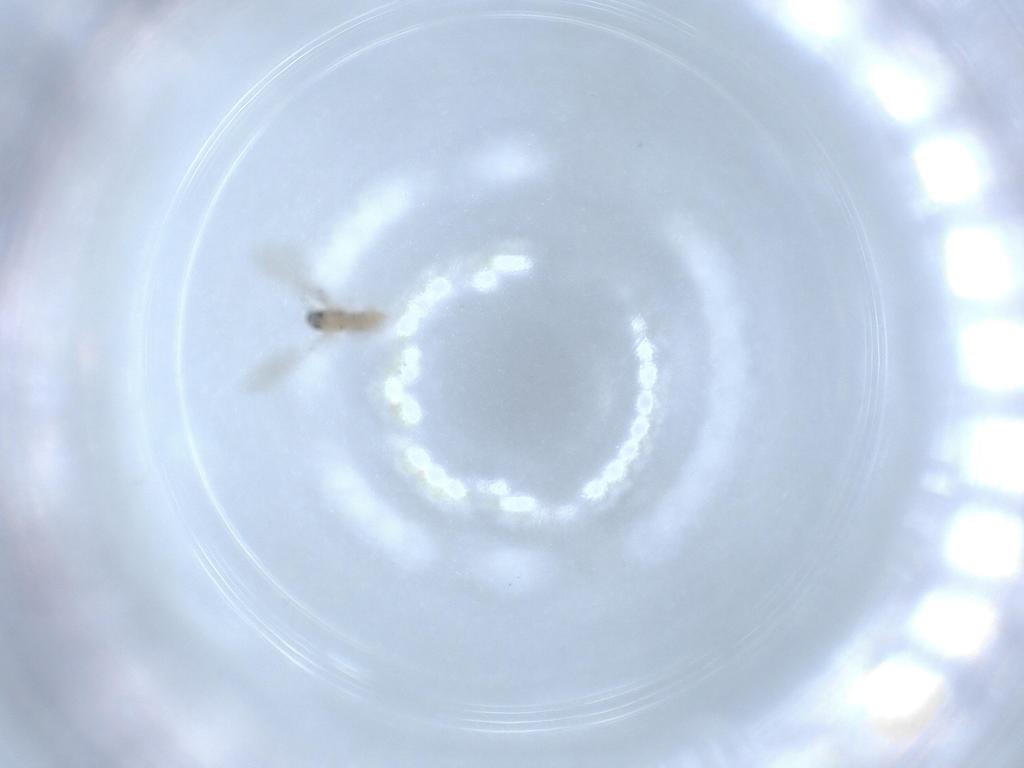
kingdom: Animalia
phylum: Arthropoda
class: Insecta
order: Diptera
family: Cecidomyiidae
